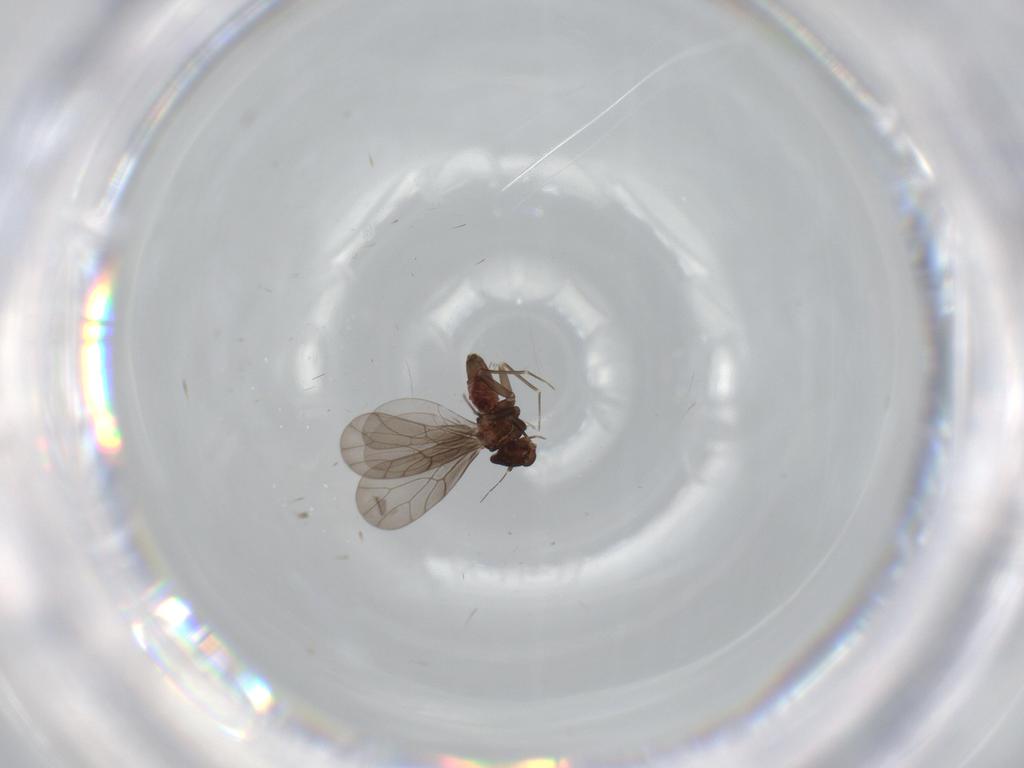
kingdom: Animalia
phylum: Arthropoda
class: Insecta
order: Psocodea
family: Lepidopsocidae
